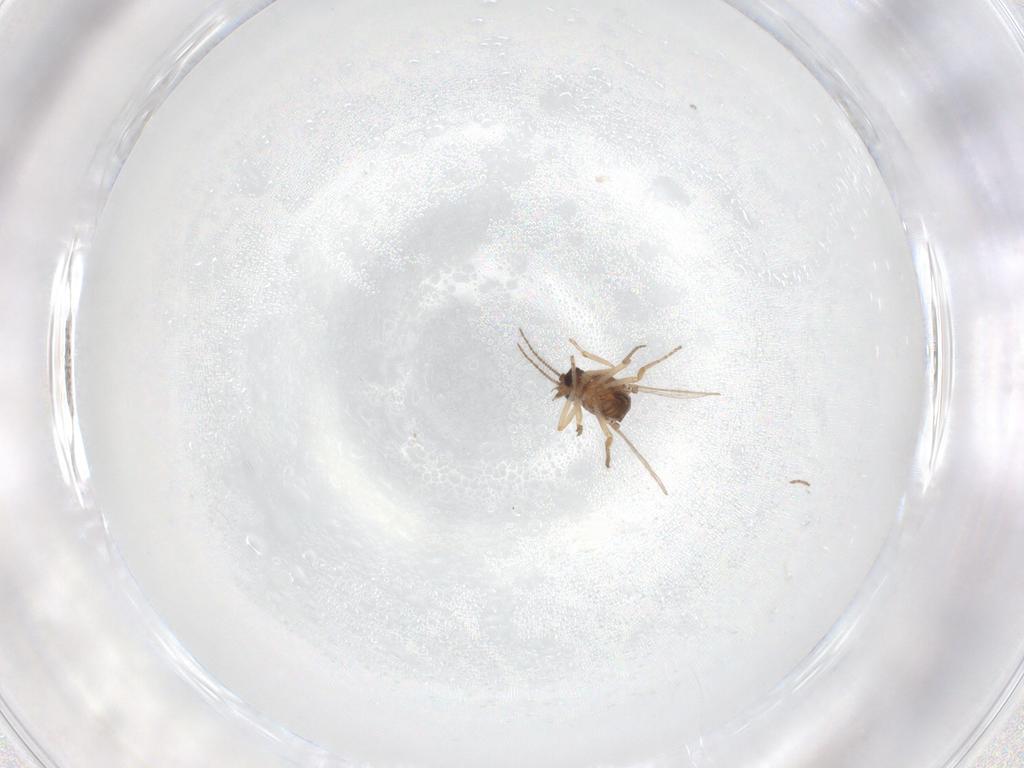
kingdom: Animalia
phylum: Arthropoda
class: Insecta
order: Diptera
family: Ceratopogonidae
